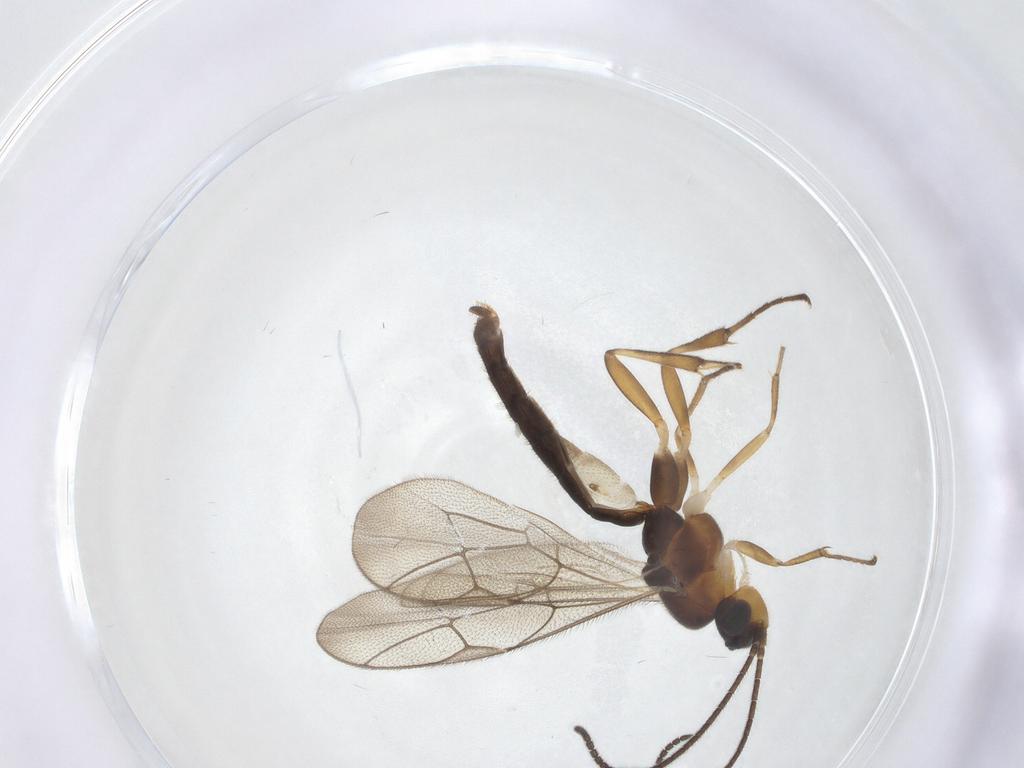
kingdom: Animalia
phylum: Arthropoda
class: Insecta
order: Hymenoptera
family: Ichneumonidae
